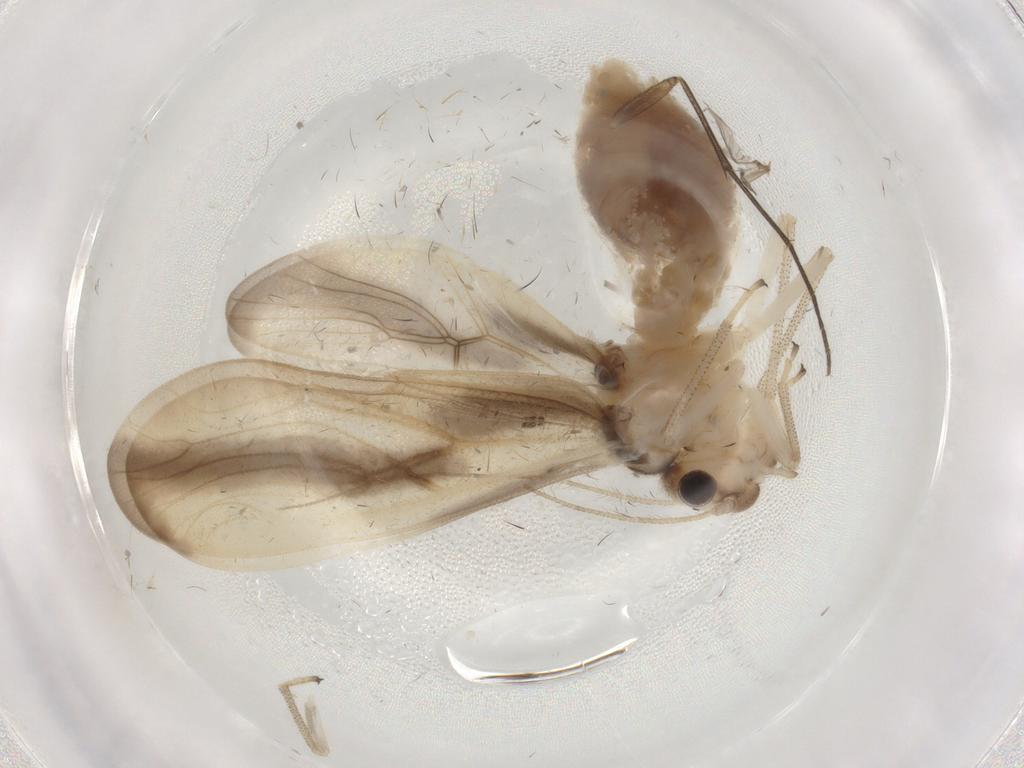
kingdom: Animalia
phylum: Arthropoda
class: Insecta
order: Psocodea
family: Amphipsocidae
